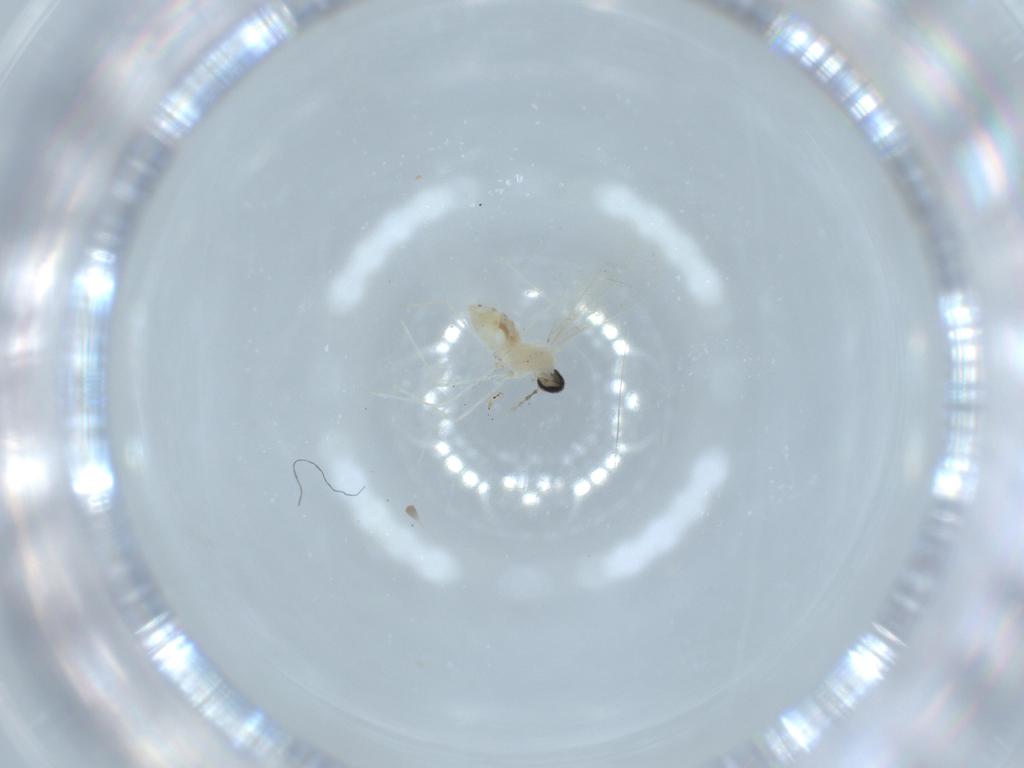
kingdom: Animalia
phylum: Arthropoda
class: Insecta
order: Diptera
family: Cecidomyiidae
